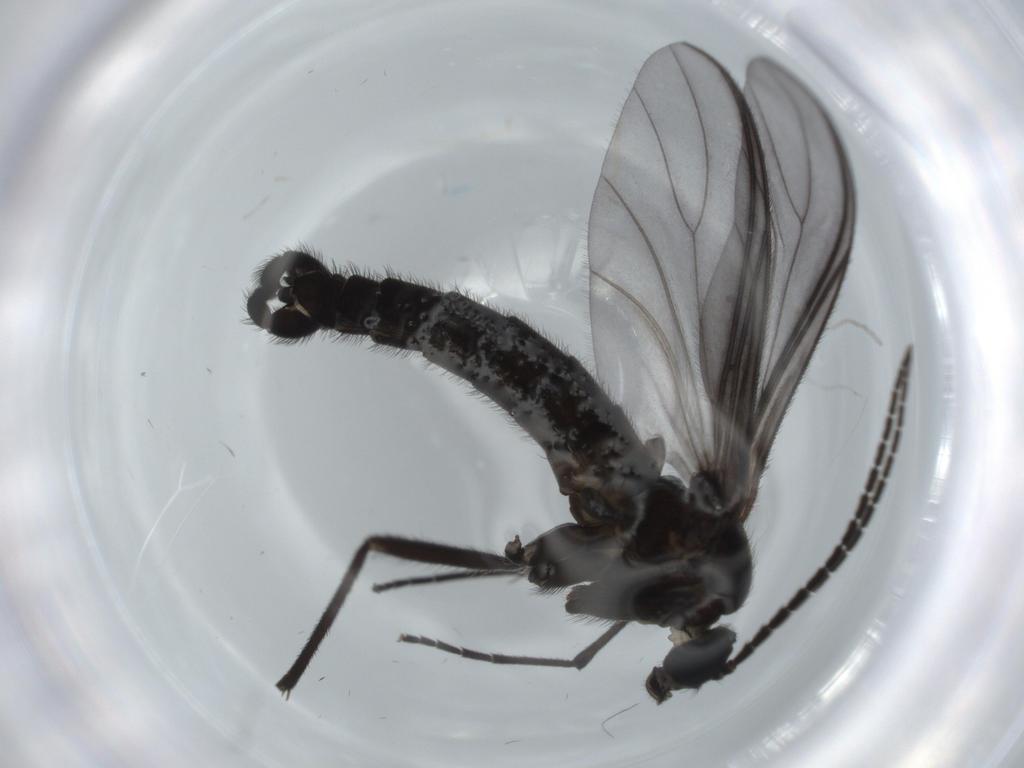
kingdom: Animalia
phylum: Arthropoda
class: Insecta
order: Diptera
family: Cecidomyiidae
